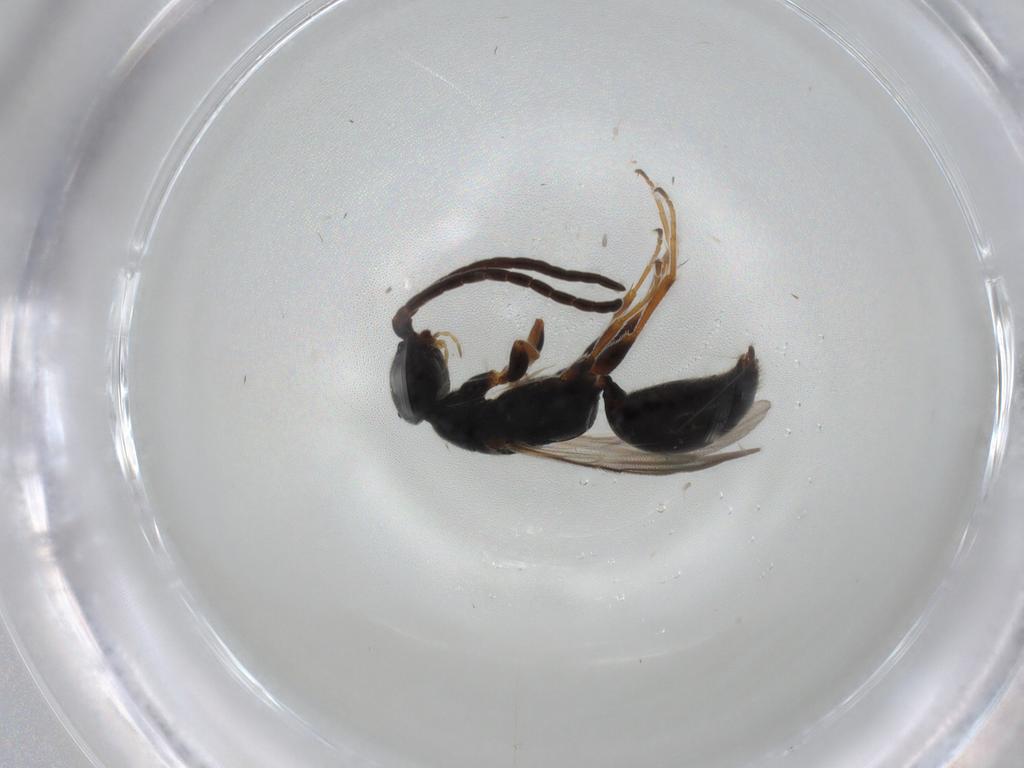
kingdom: Animalia
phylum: Arthropoda
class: Insecta
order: Hymenoptera
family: Bethylidae
